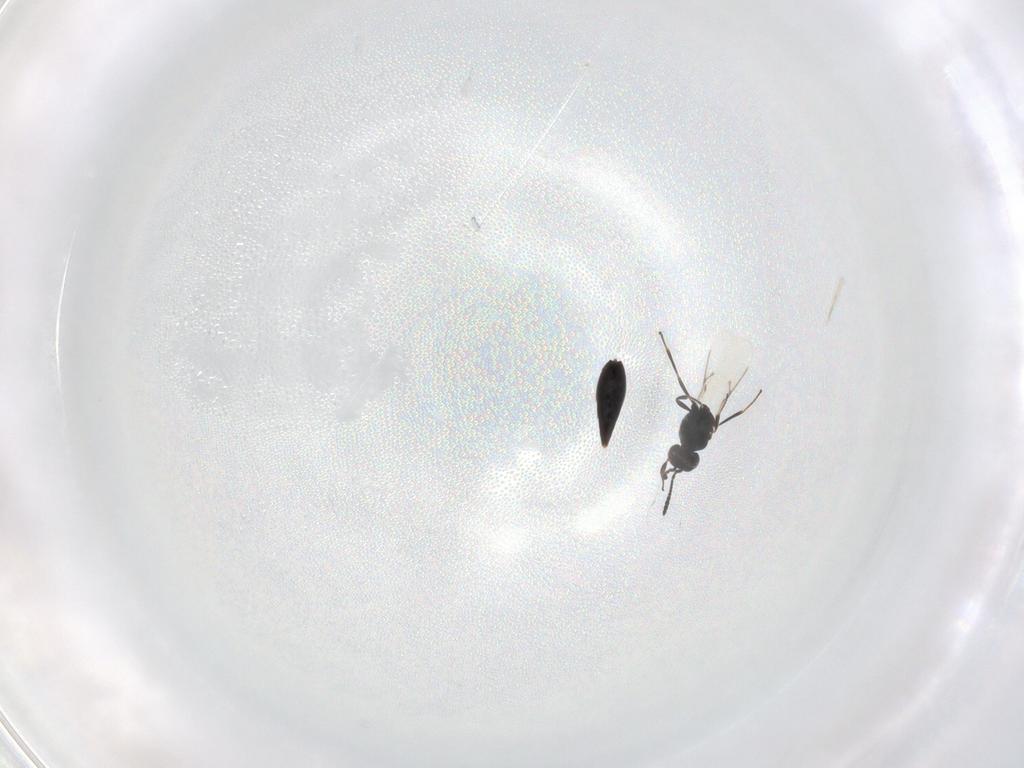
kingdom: Animalia
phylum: Arthropoda
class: Insecta
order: Hymenoptera
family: Scelionidae
